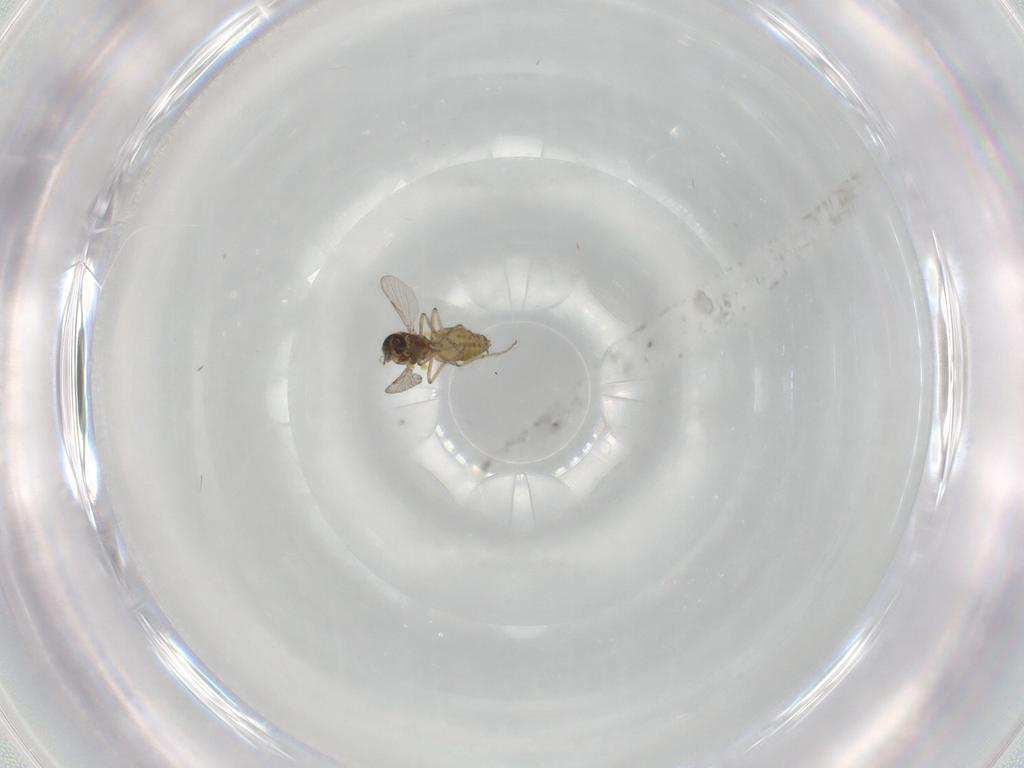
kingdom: Animalia
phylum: Arthropoda
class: Insecta
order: Diptera
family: Ceratopogonidae
